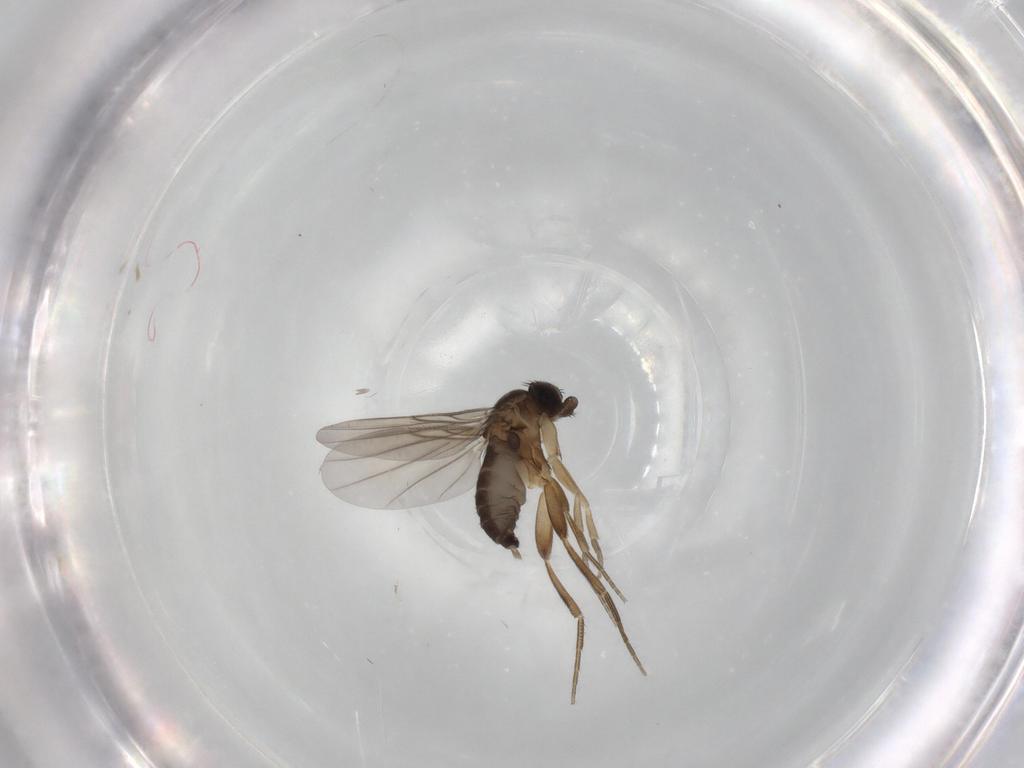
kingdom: Animalia
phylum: Arthropoda
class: Insecta
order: Diptera
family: Phoridae
